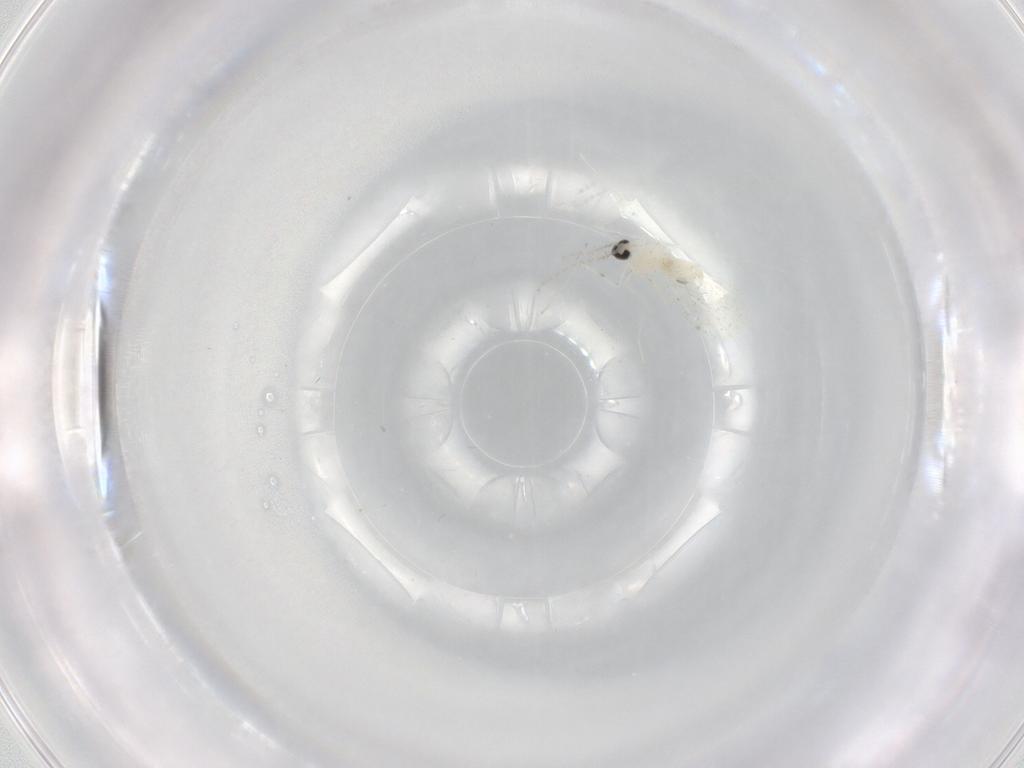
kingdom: Animalia
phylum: Arthropoda
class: Insecta
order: Diptera
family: Cecidomyiidae
